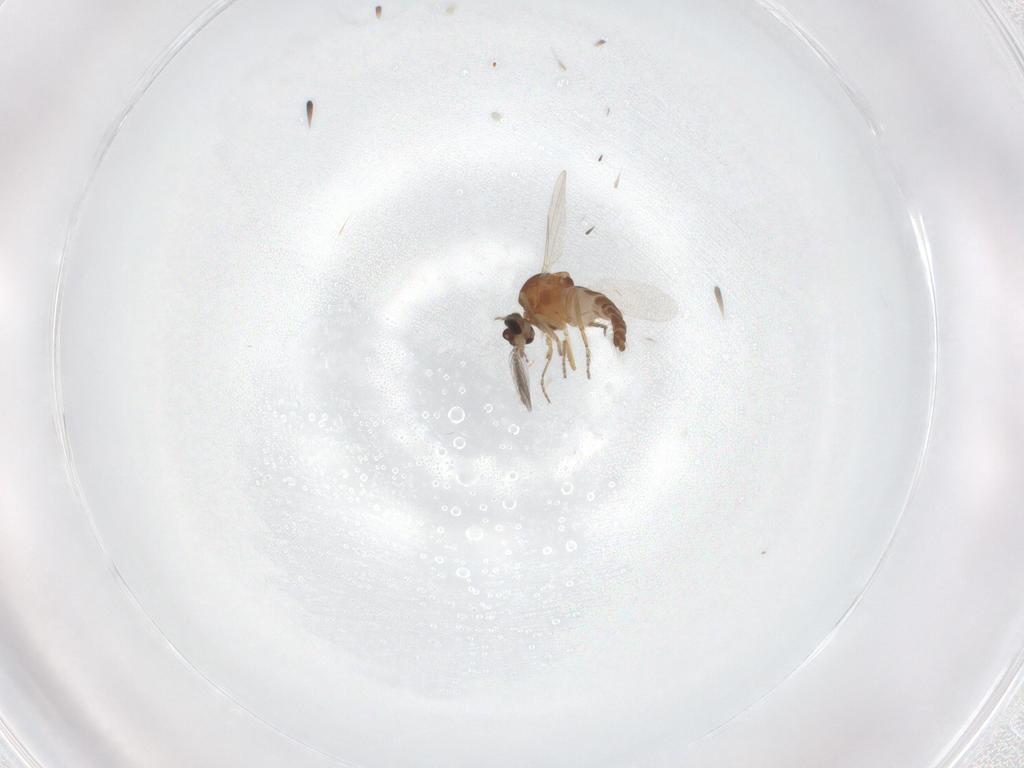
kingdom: Animalia
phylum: Arthropoda
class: Insecta
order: Diptera
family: Ceratopogonidae
